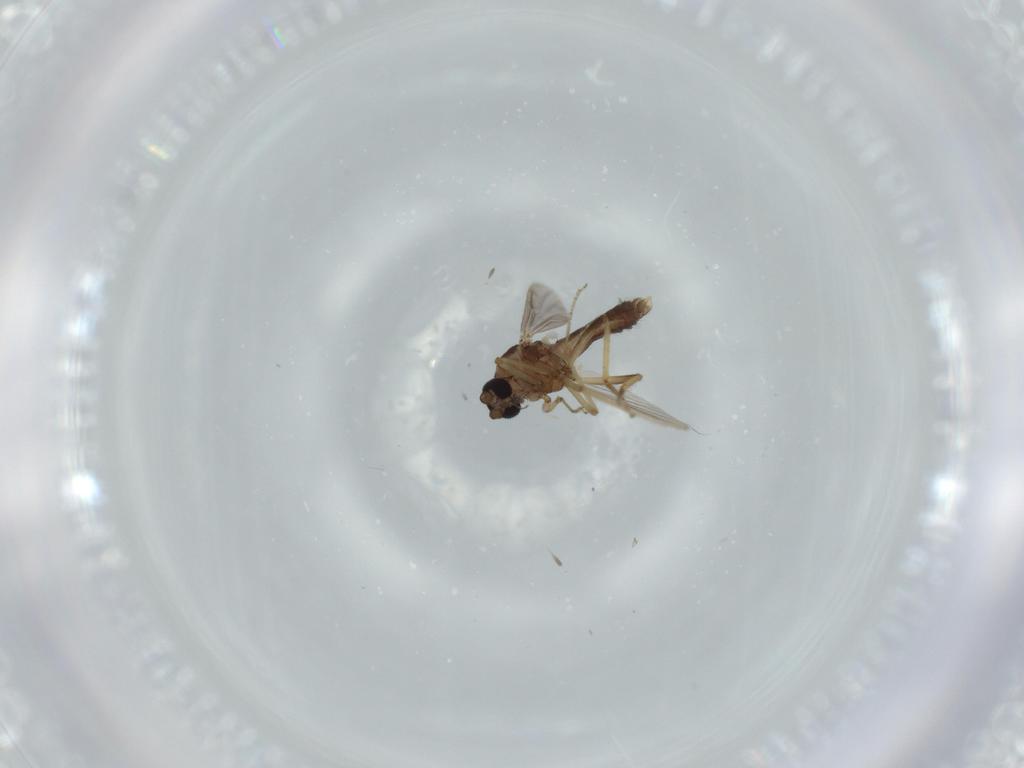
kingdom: Animalia
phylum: Arthropoda
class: Insecta
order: Diptera
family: Ceratopogonidae
